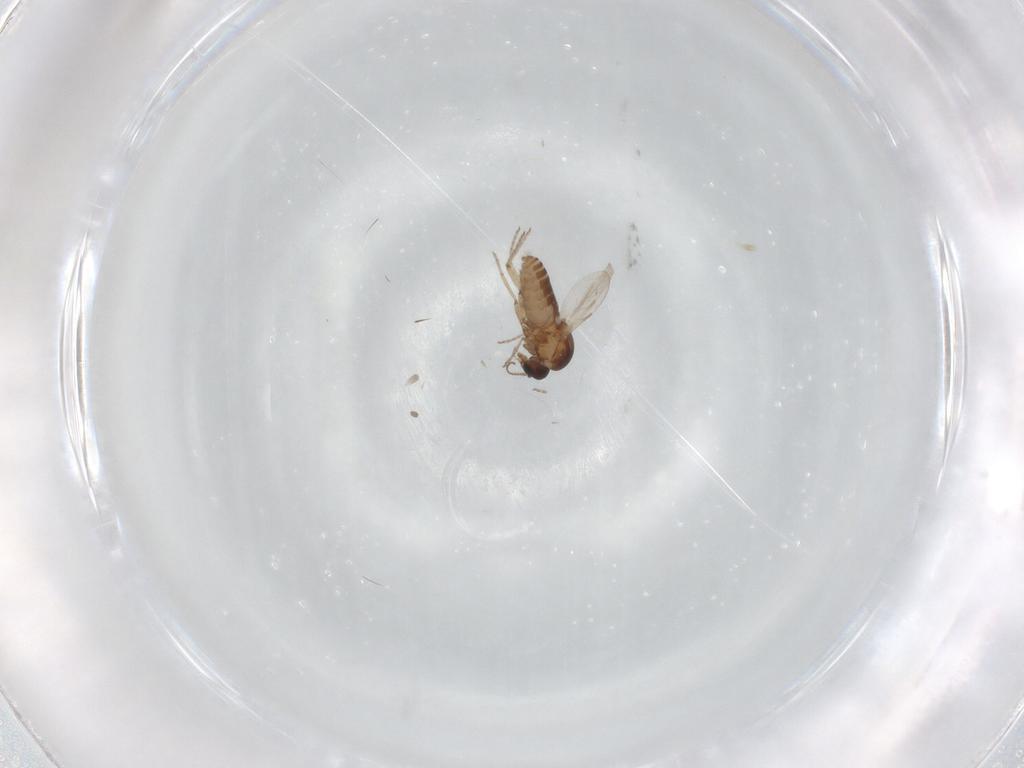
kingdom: Animalia
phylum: Arthropoda
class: Insecta
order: Diptera
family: Ceratopogonidae
